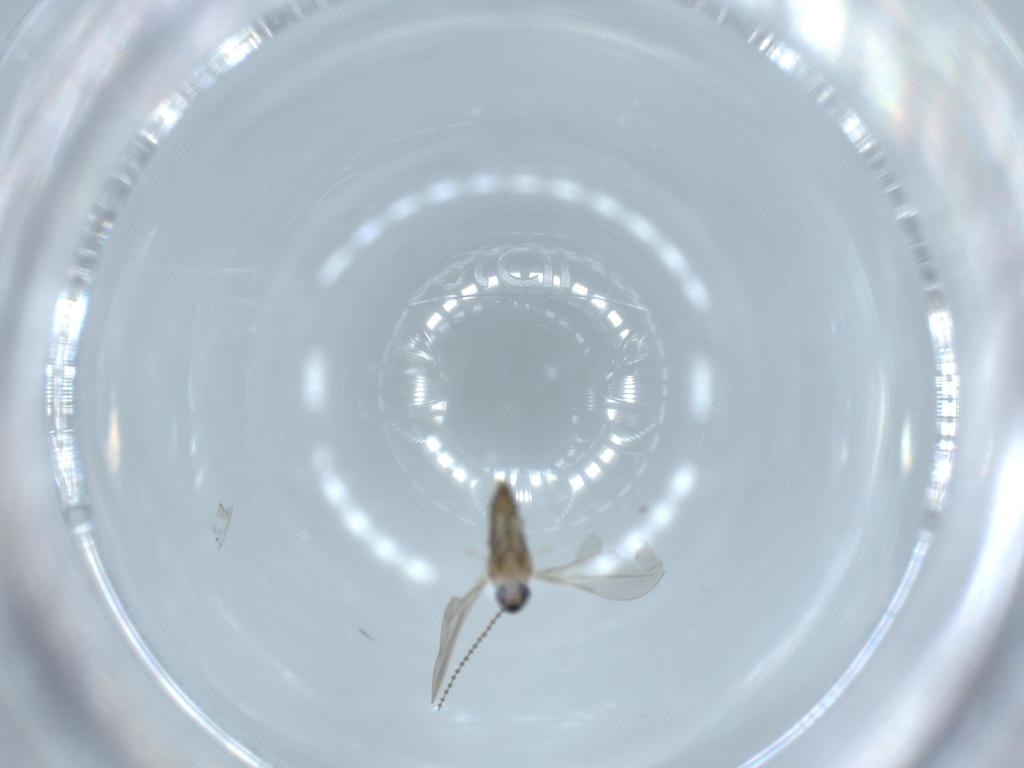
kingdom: Animalia
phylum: Arthropoda
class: Insecta
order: Diptera
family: Cecidomyiidae
